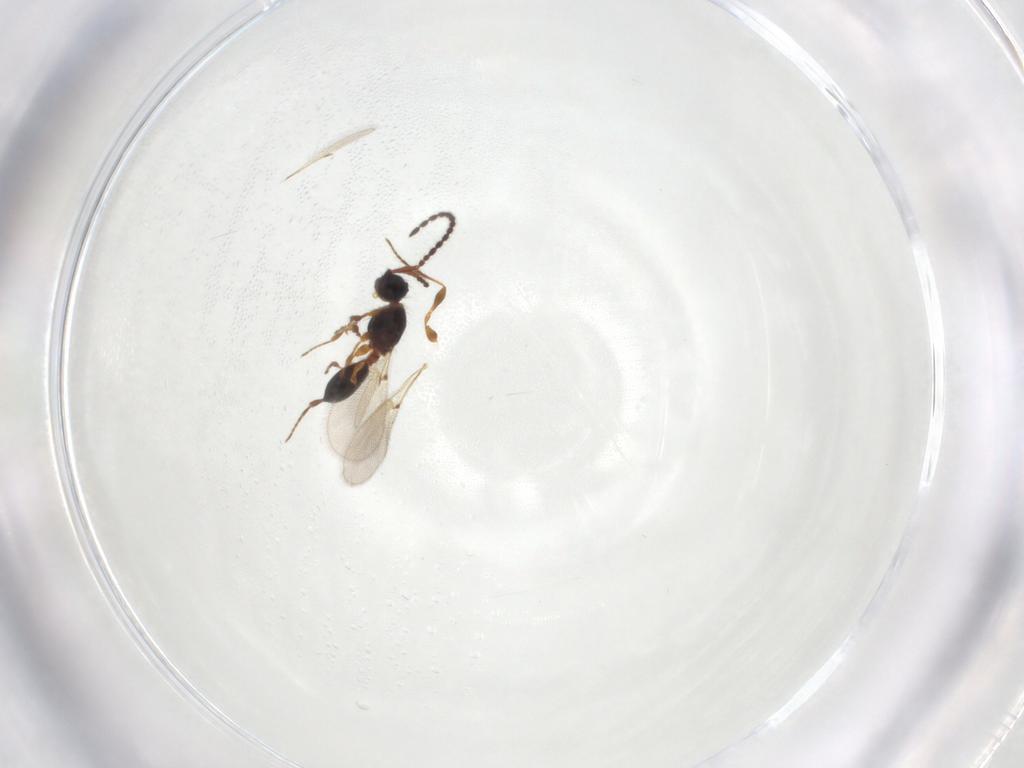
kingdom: Animalia
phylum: Arthropoda
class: Insecta
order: Hymenoptera
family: Diapriidae
